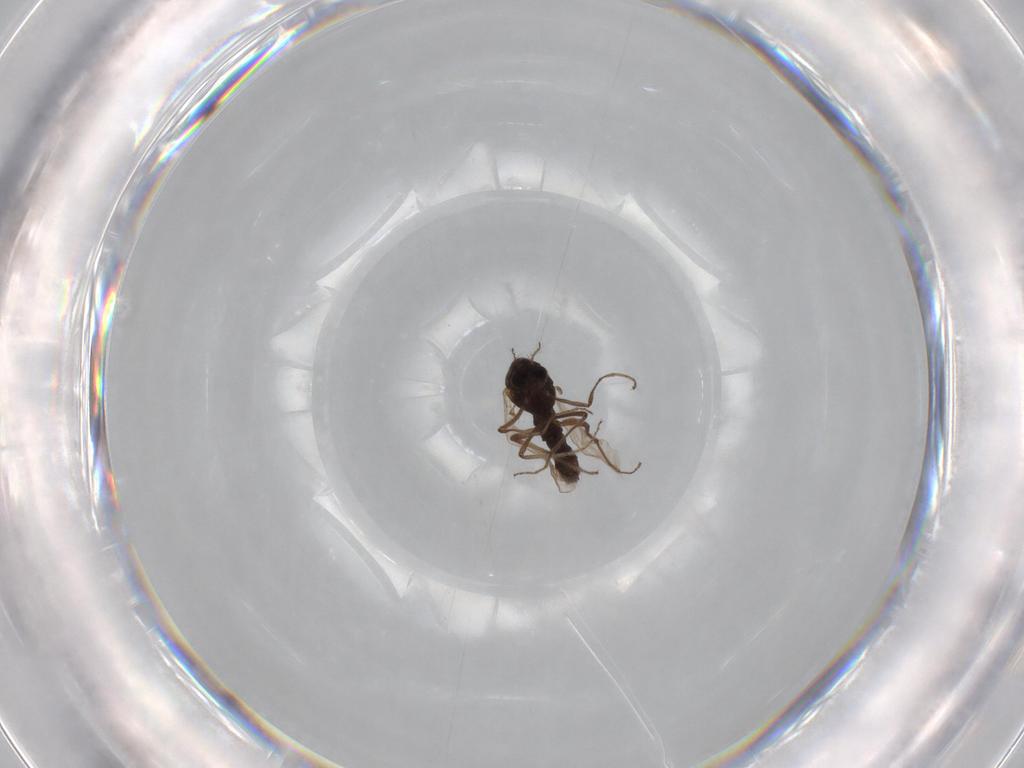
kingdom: Animalia
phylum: Arthropoda
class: Insecta
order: Diptera
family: Chironomidae
